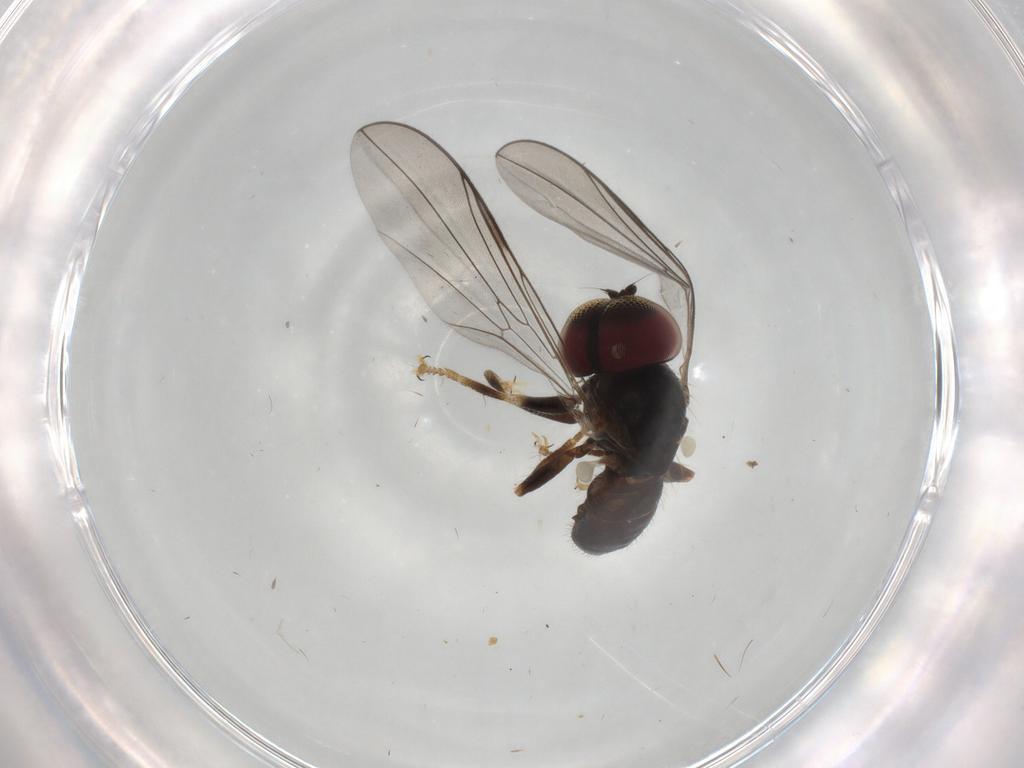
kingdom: Animalia
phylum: Arthropoda
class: Insecta
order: Diptera
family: Pipunculidae
